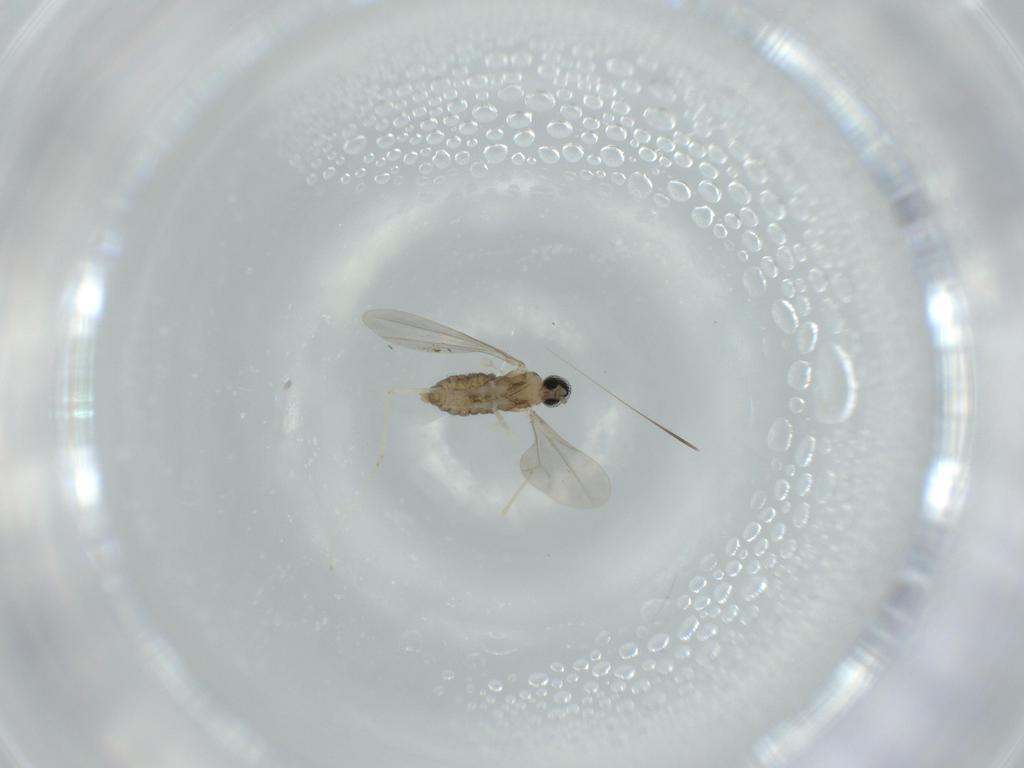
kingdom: Animalia
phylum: Arthropoda
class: Insecta
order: Diptera
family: Cecidomyiidae
